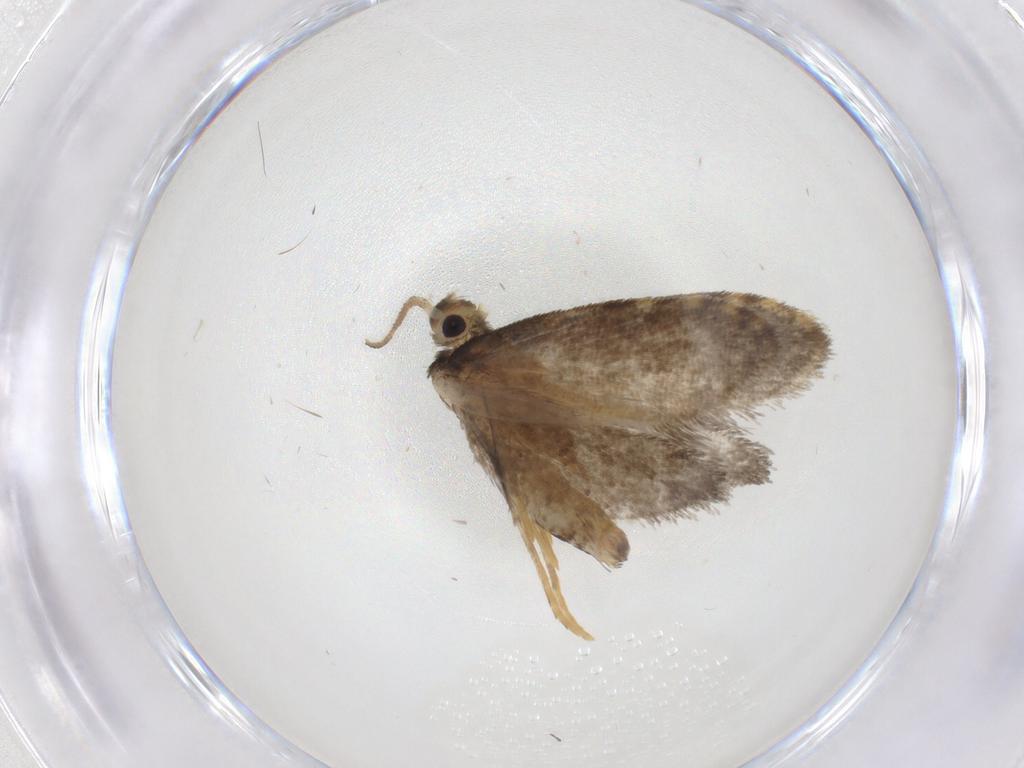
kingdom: Animalia
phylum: Arthropoda
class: Insecta
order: Lepidoptera
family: Psychidae
